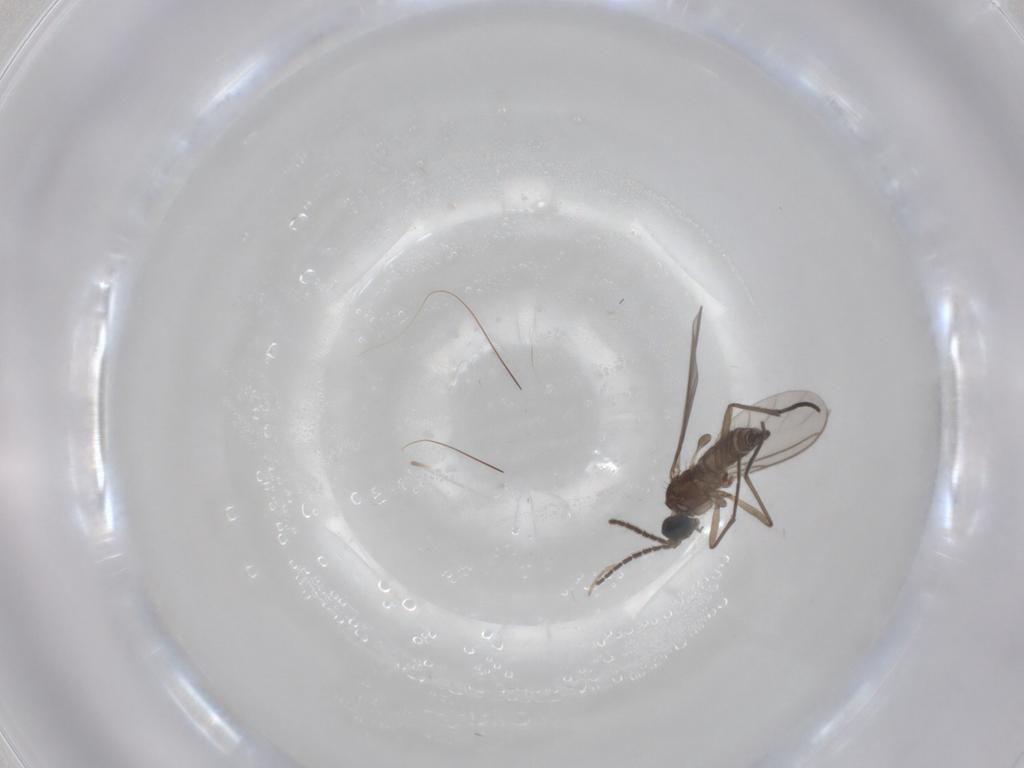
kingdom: Animalia
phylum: Arthropoda
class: Insecta
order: Diptera
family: Sciaridae
